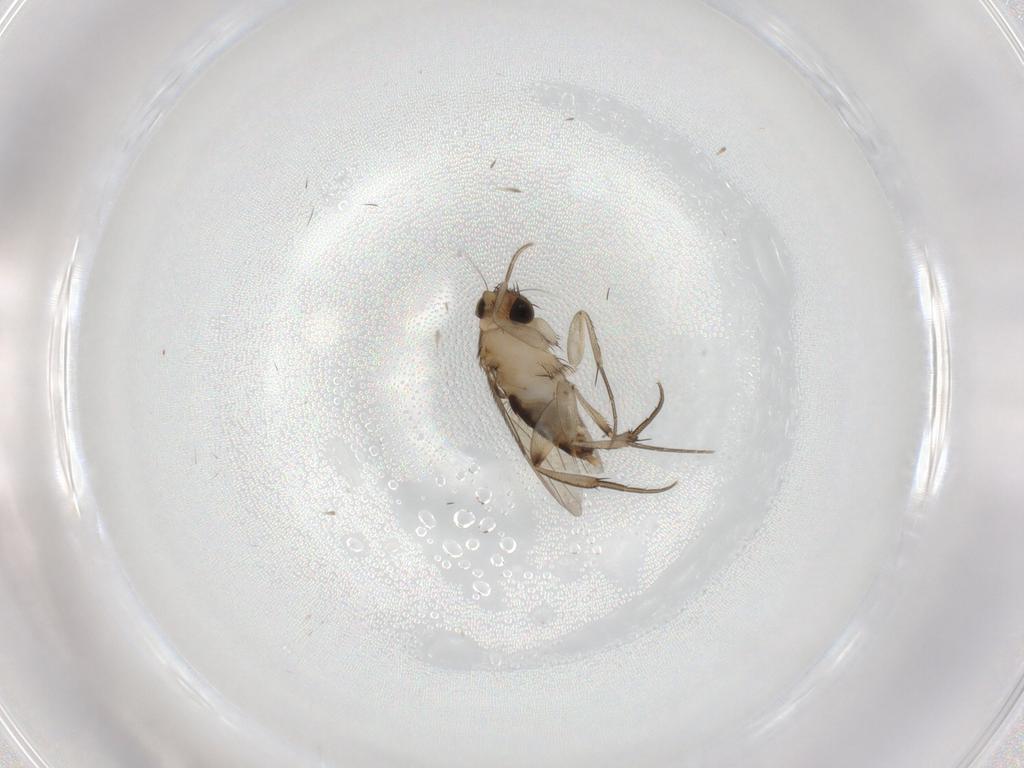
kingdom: Animalia
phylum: Arthropoda
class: Insecta
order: Diptera
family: Phoridae
